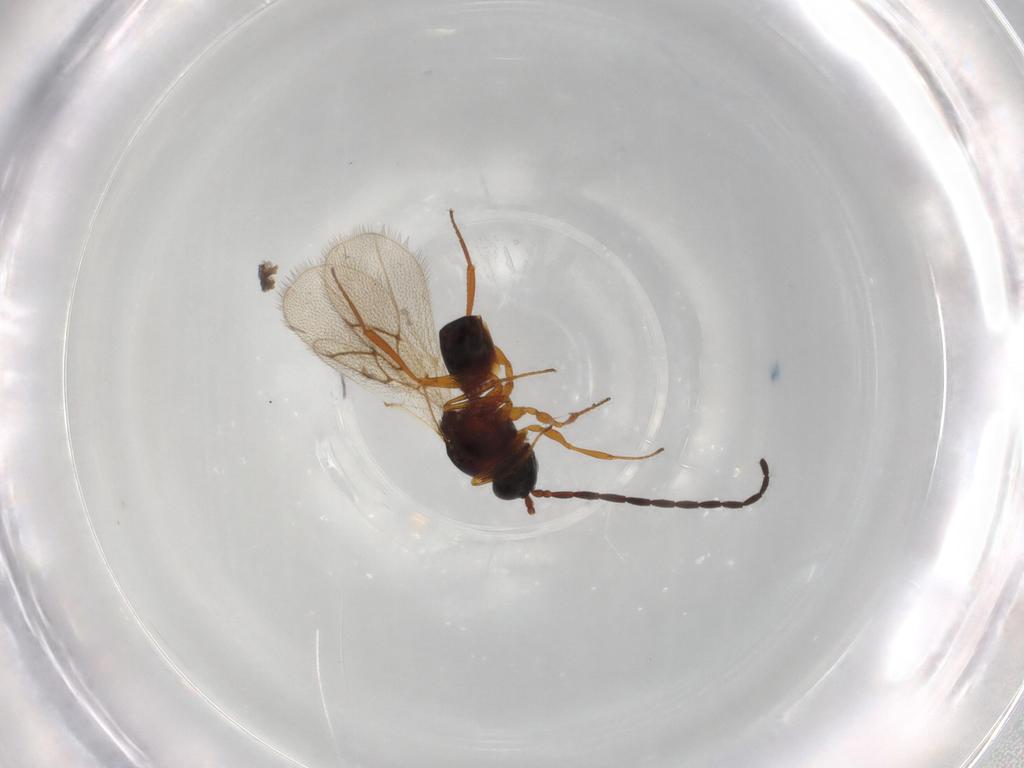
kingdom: Animalia
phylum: Arthropoda
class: Insecta
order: Hymenoptera
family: Figitidae
